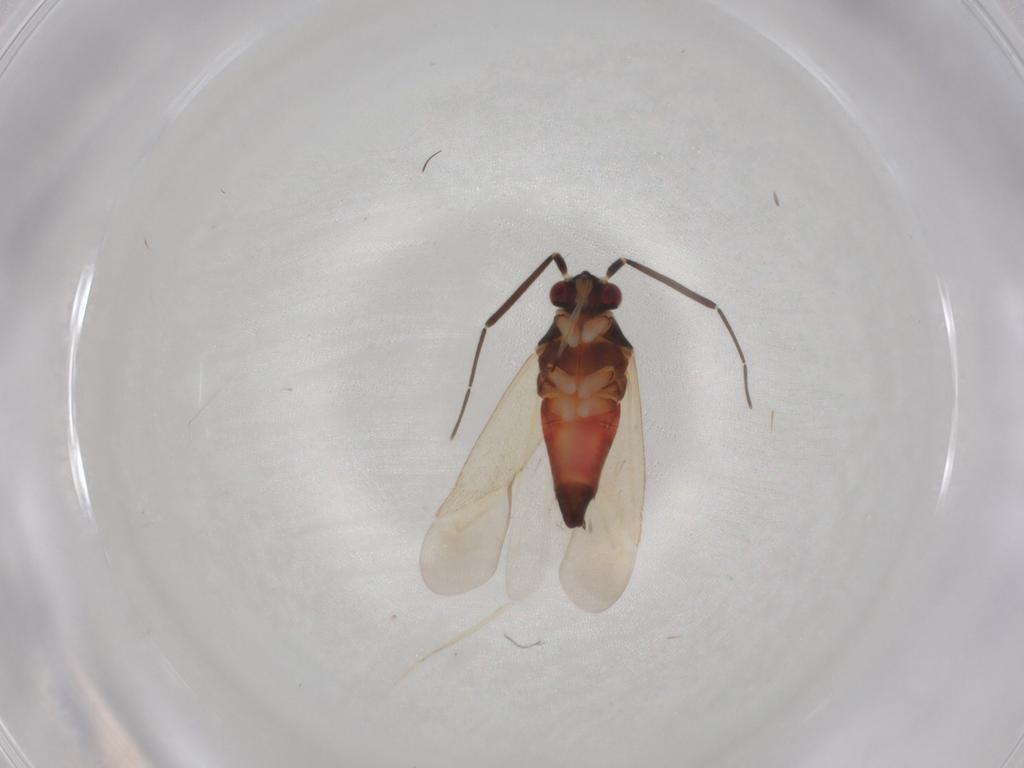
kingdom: Animalia
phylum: Arthropoda
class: Insecta
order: Hemiptera
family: Miridae
